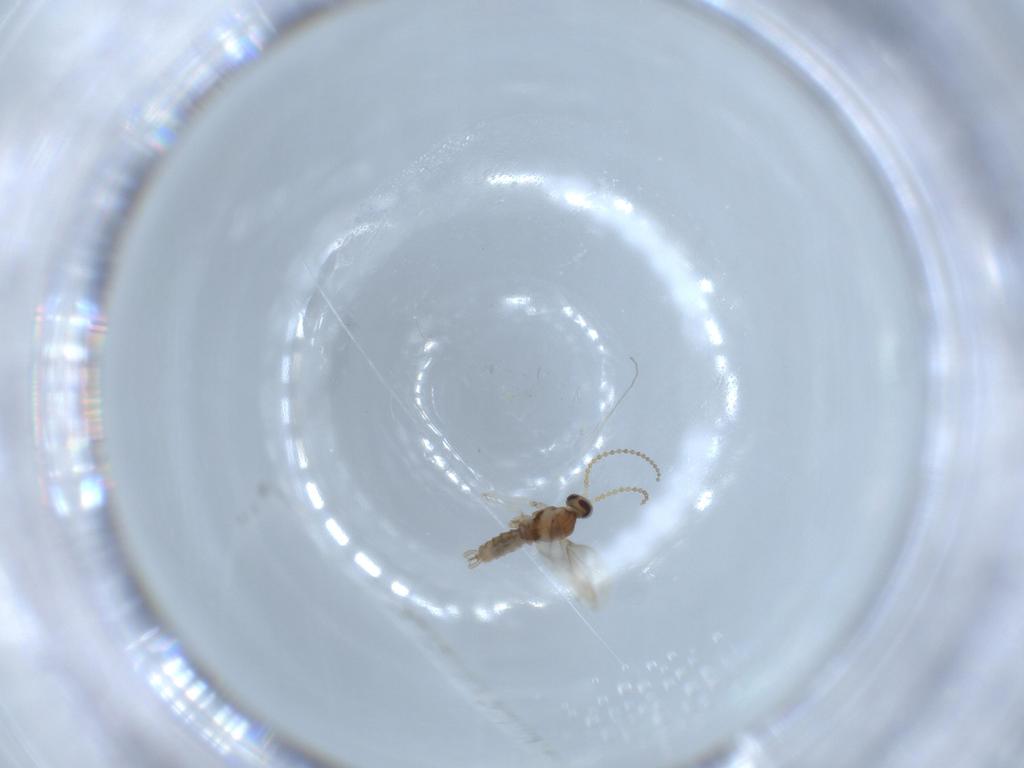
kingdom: Animalia
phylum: Arthropoda
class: Insecta
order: Diptera
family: Cecidomyiidae
